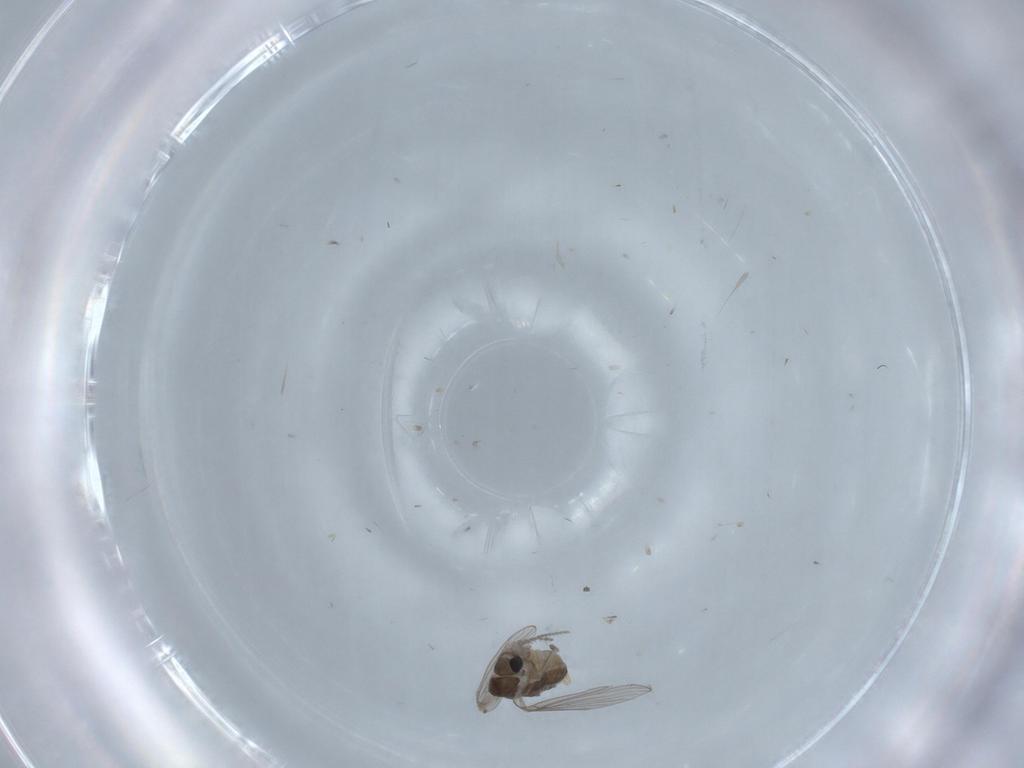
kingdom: Animalia
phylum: Arthropoda
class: Insecta
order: Diptera
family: Psychodidae
